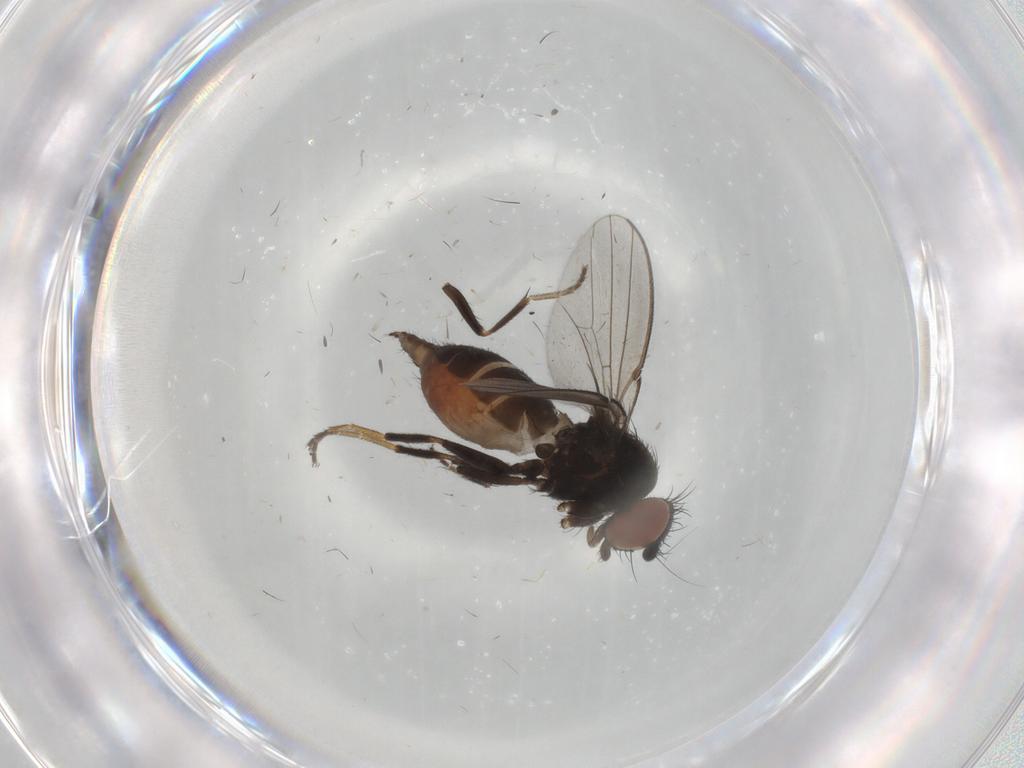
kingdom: Animalia
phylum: Arthropoda
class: Insecta
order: Diptera
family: Milichiidae
